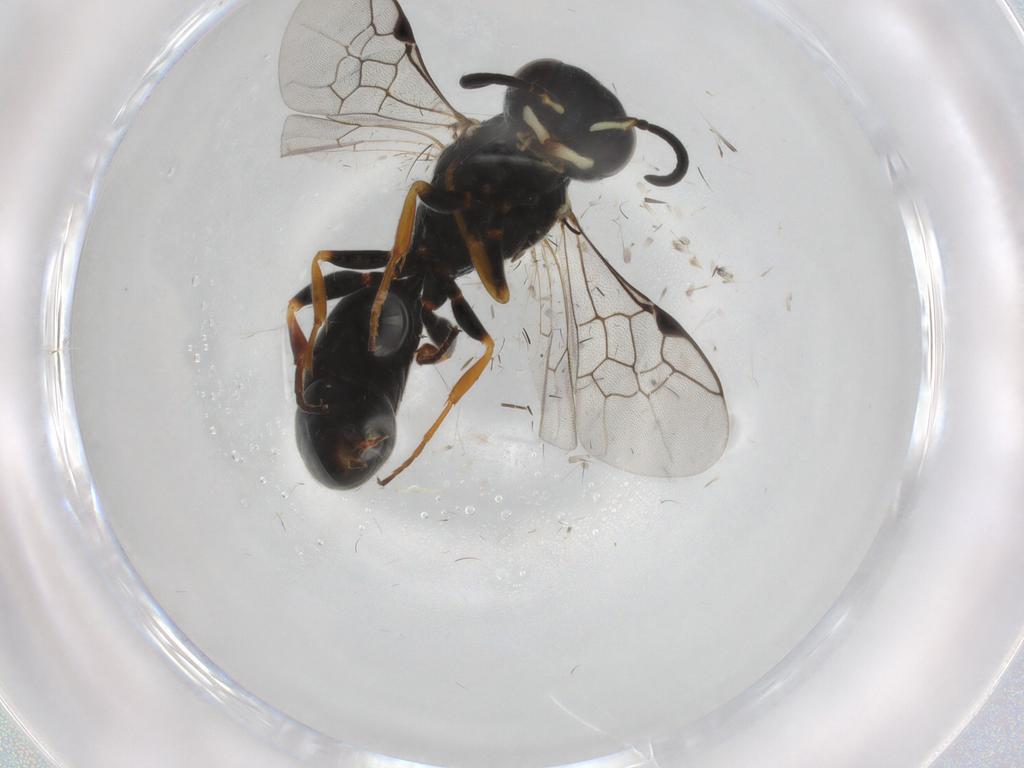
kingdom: Animalia
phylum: Arthropoda
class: Insecta
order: Hymenoptera
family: Crabronidae
